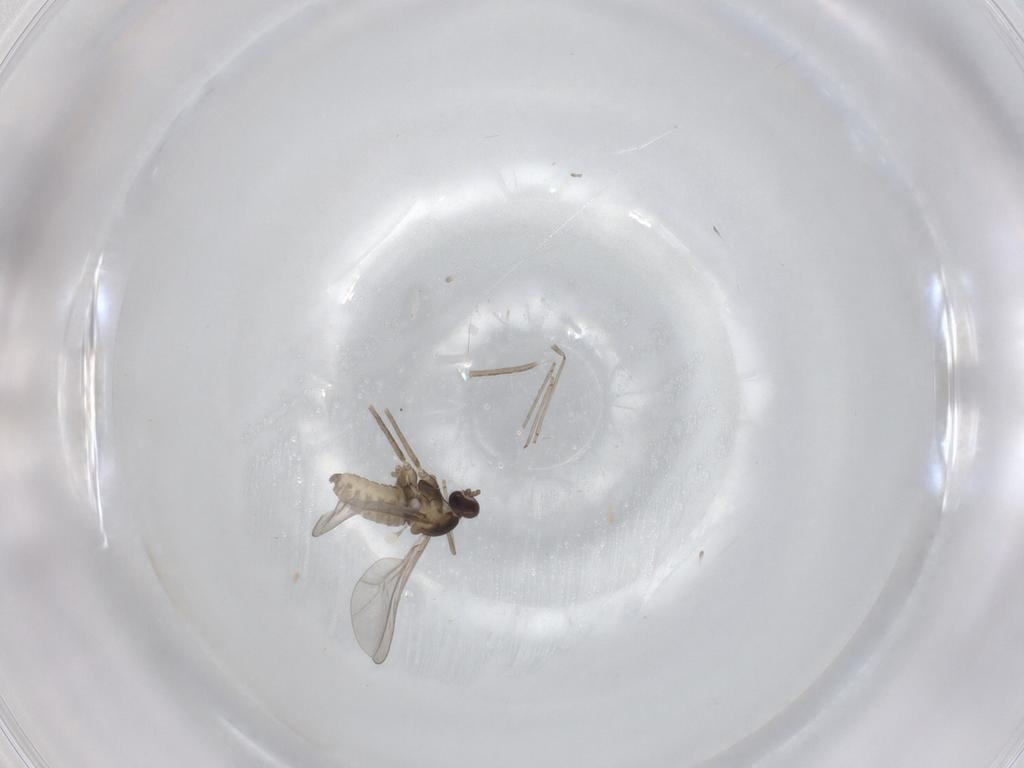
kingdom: Animalia
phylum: Arthropoda
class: Insecta
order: Diptera
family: Cecidomyiidae
